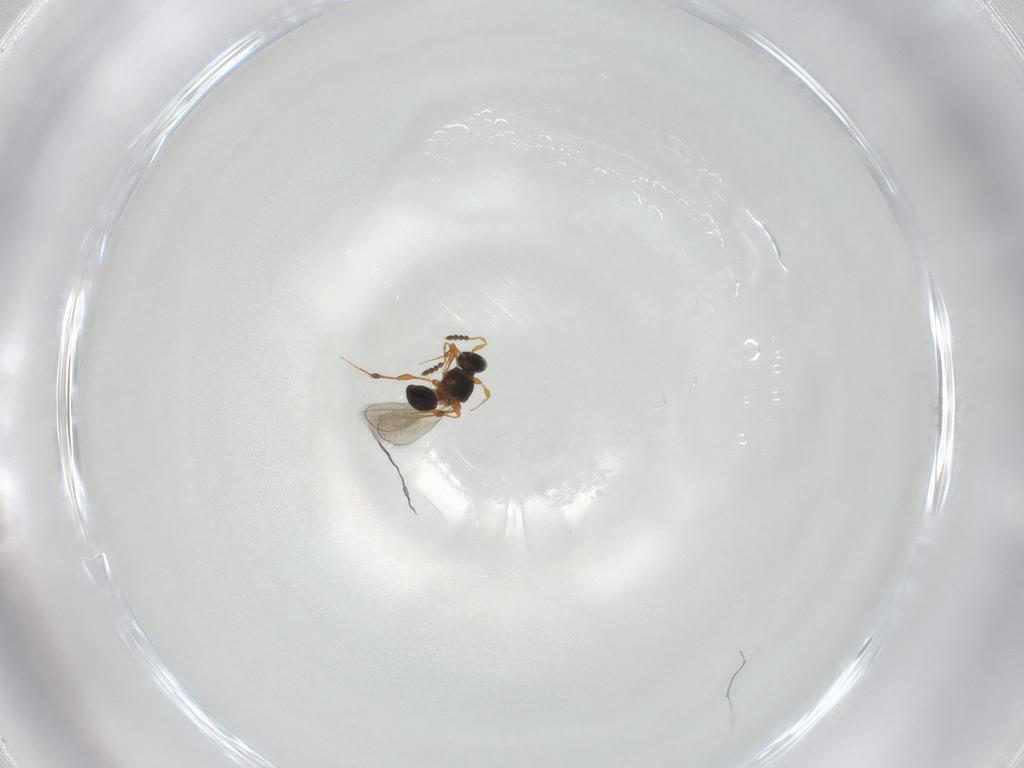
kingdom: Animalia
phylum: Arthropoda
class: Insecta
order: Hymenoptera
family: Platygastridae
